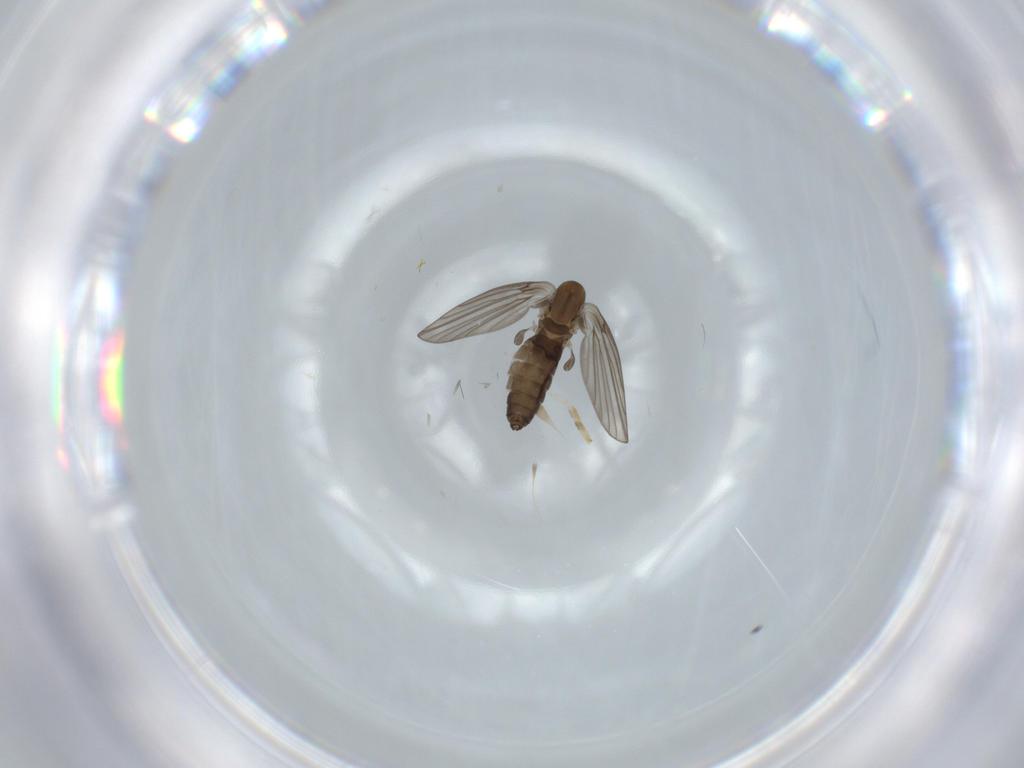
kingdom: Animalia
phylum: Arthropoda
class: Insecta
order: Diptera
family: Psychodidae
